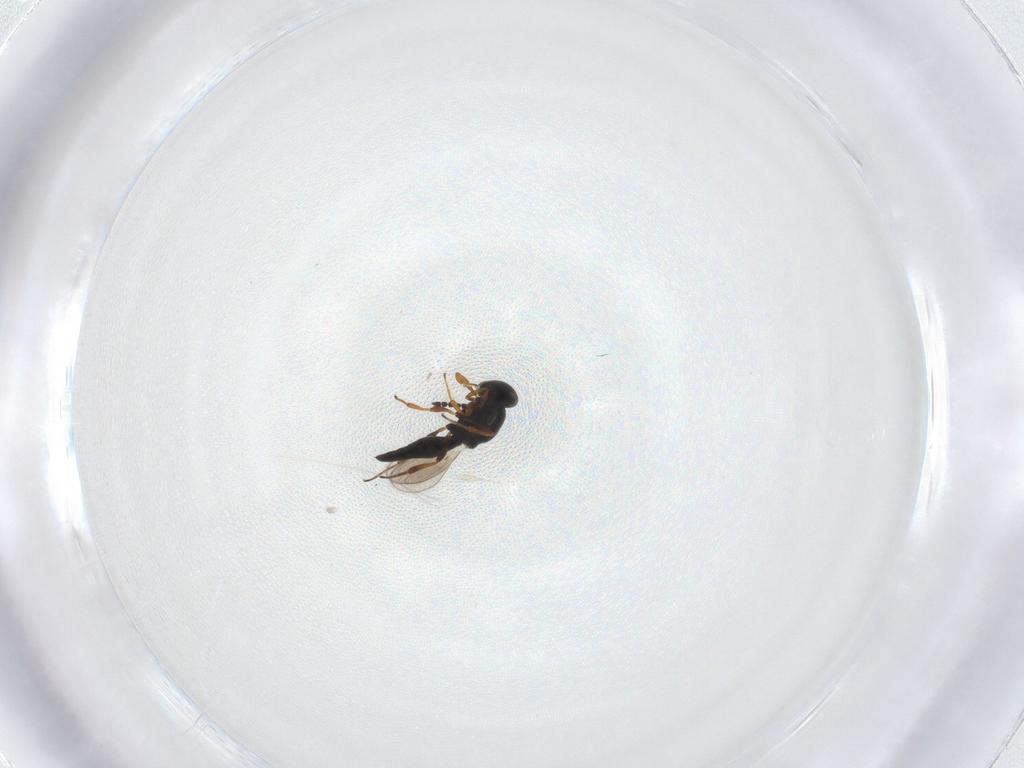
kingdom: Animalia
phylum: Arthropoda
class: Insecta
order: Hymenoptera
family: Platygastridae
